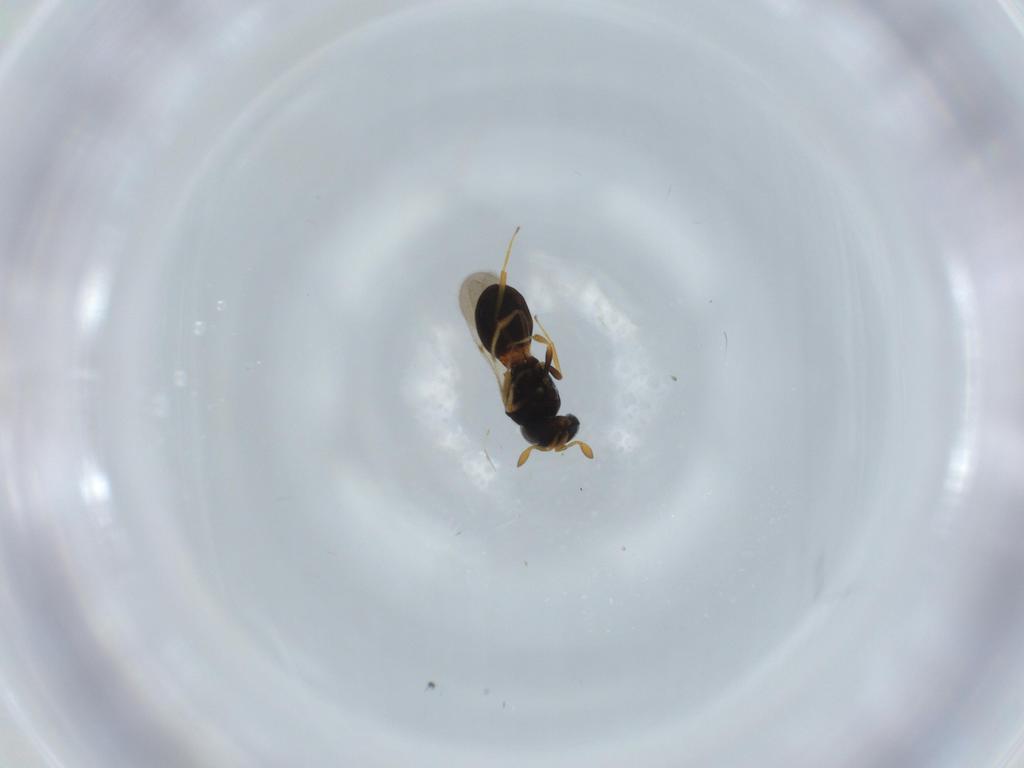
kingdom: Animalia
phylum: Arthropoda
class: Insecta
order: Hymenoptera
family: Scelionidae
